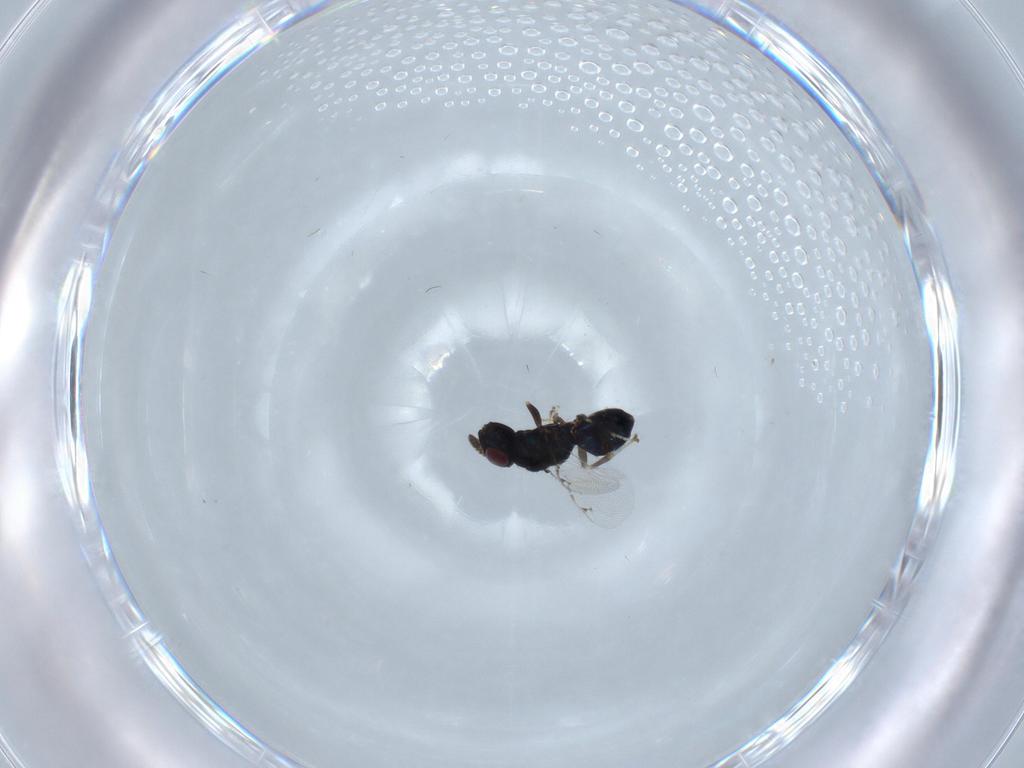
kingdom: Animalia
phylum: Arthropoda
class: Insecta
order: Hymenoptera
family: Pteromalidae
